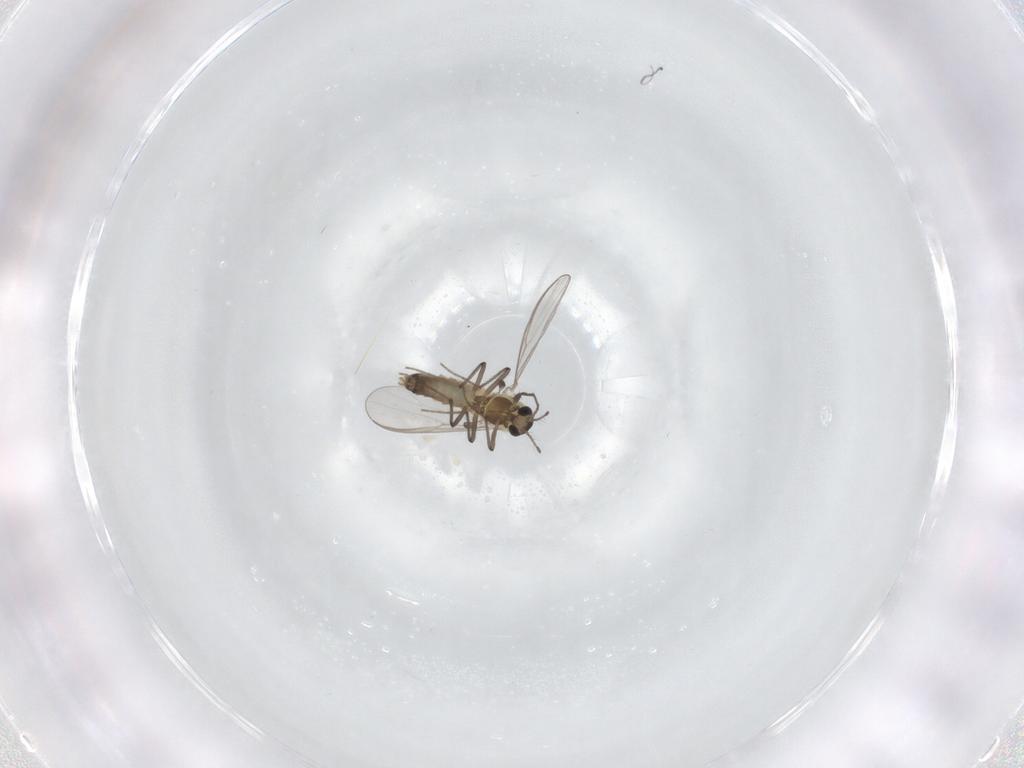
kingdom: Animalia
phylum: Arthropoda
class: Insecta
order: Diptera
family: Chironomidae
